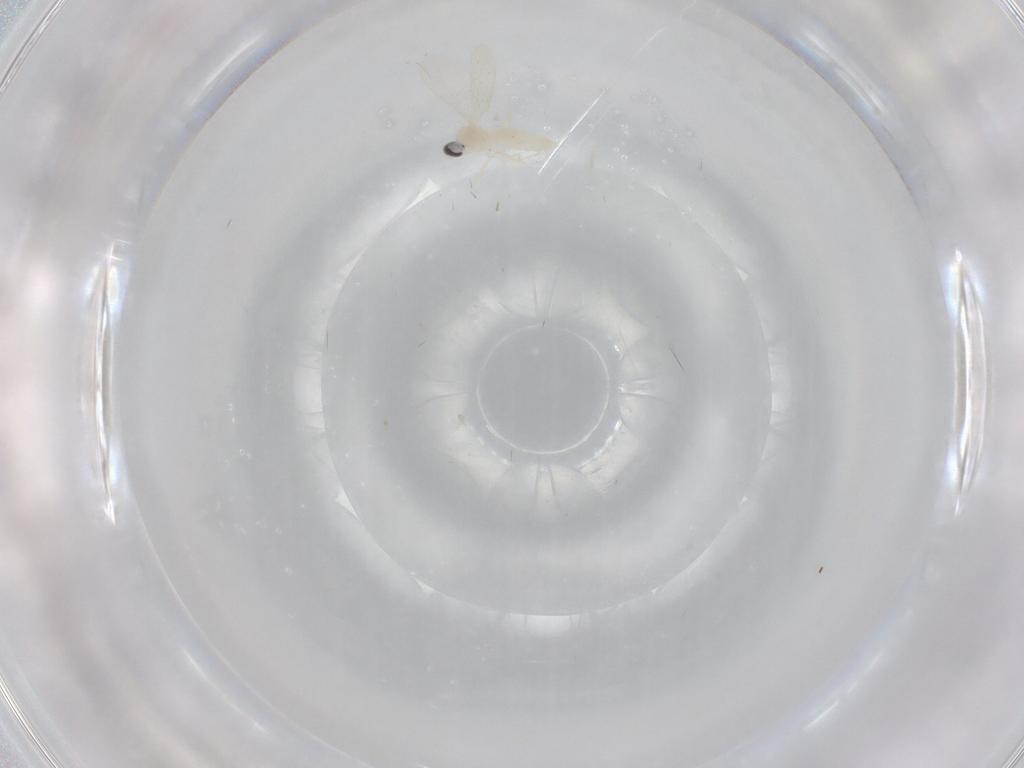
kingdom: Animalia
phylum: Arthropoda
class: Insecta
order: Diptera
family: Cecidomyiidae
